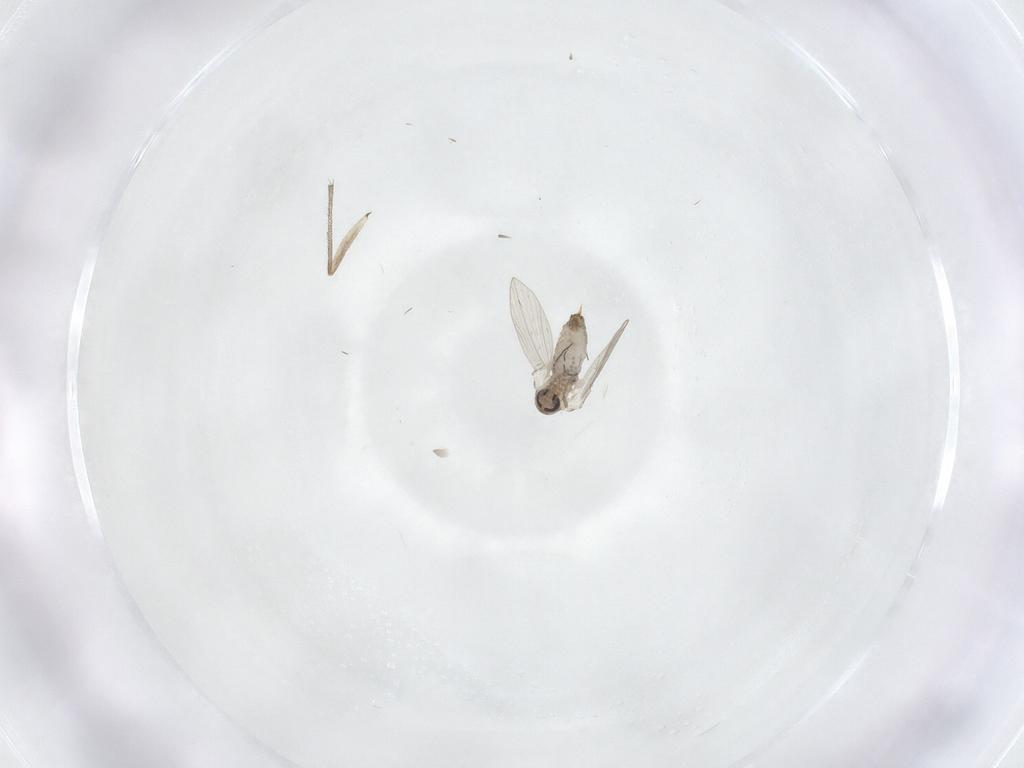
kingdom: Animalia
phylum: Arthropoda
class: Insecta
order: Diptera
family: Psychodidae
